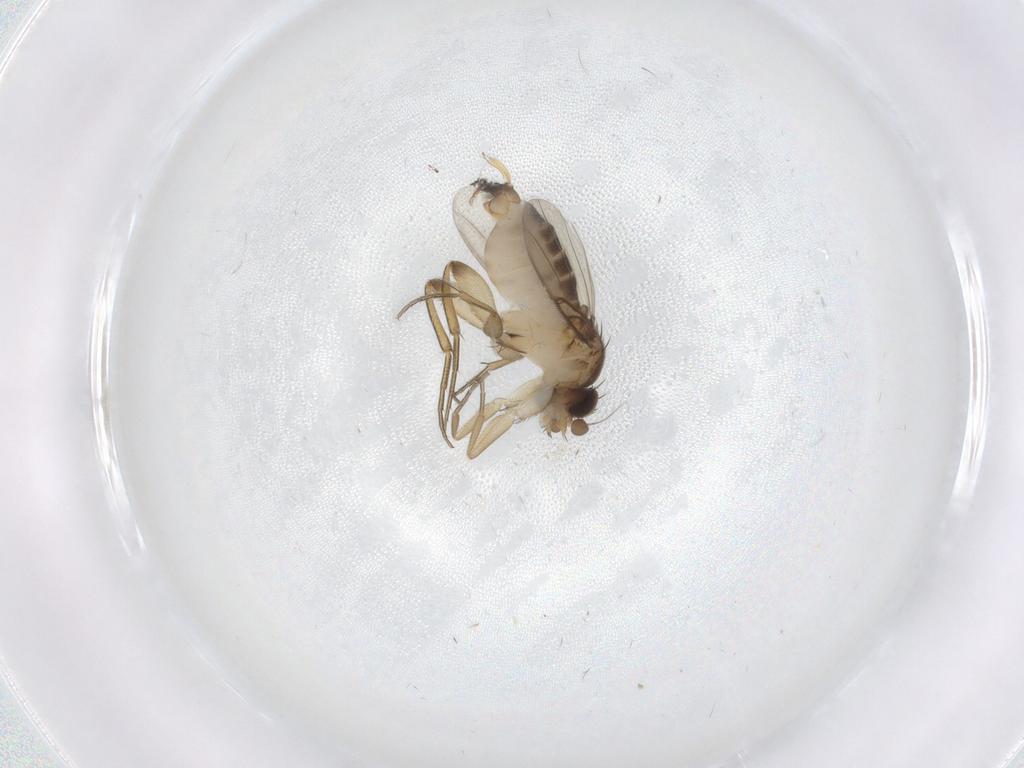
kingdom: Animalia
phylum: Arthropoda
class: Insecta
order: Diptera
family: Phoridae
